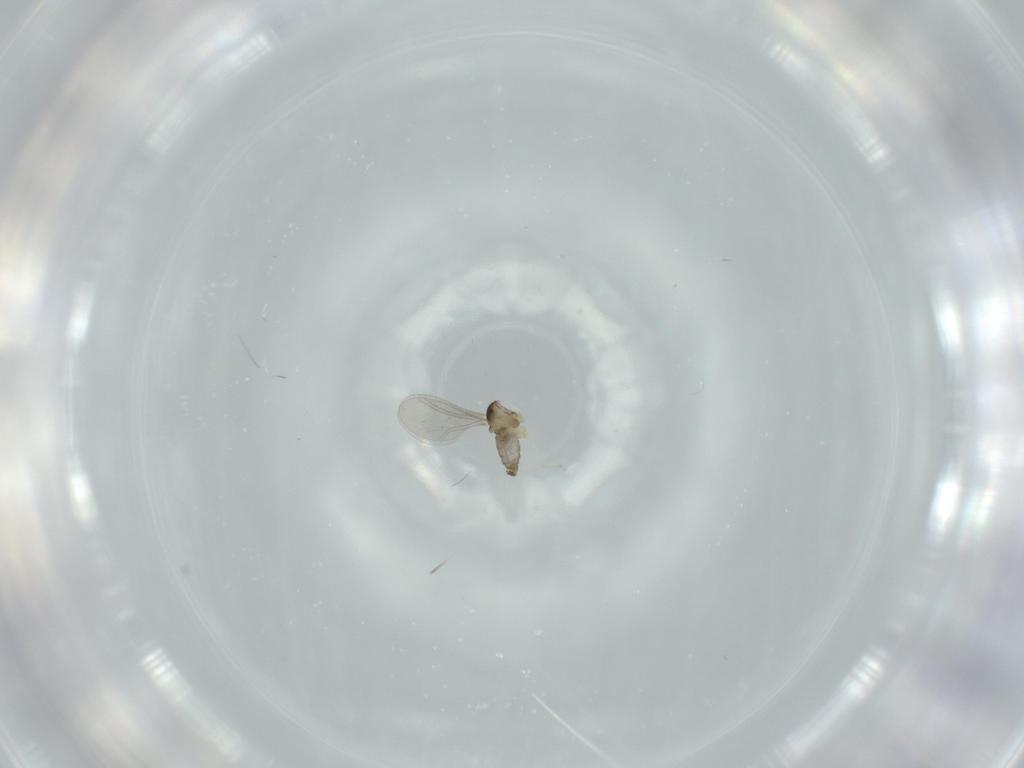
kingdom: Animalia
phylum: Arthropoda
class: Insecta
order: Diptera
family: Cecidomyiidae
